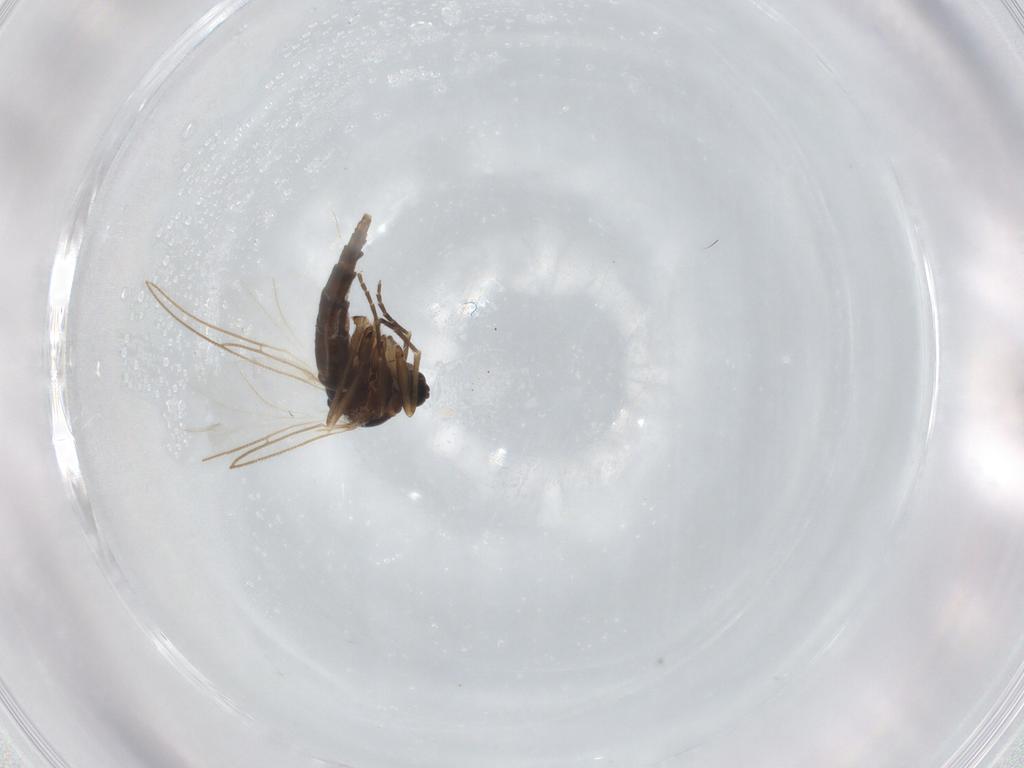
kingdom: Animalia
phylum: Arthropoda
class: Insecta
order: Diptera
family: Sciaridae
